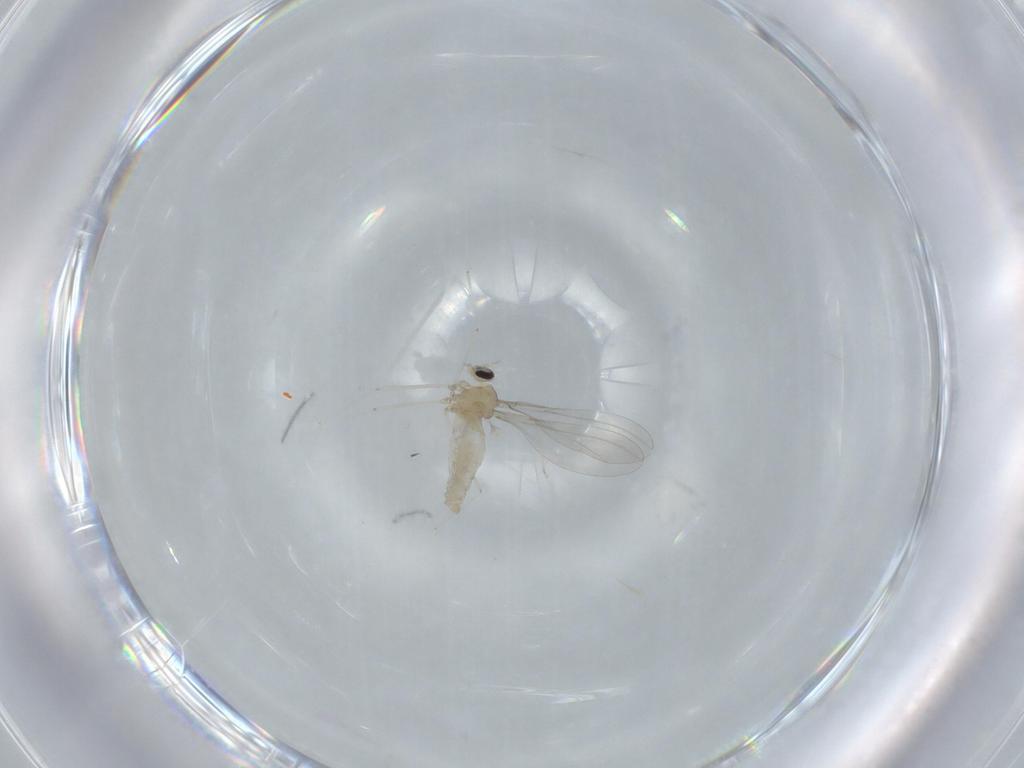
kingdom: Animalia
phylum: Arthropoda
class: Insecta
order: Diptera
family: Cecidomyiidae
